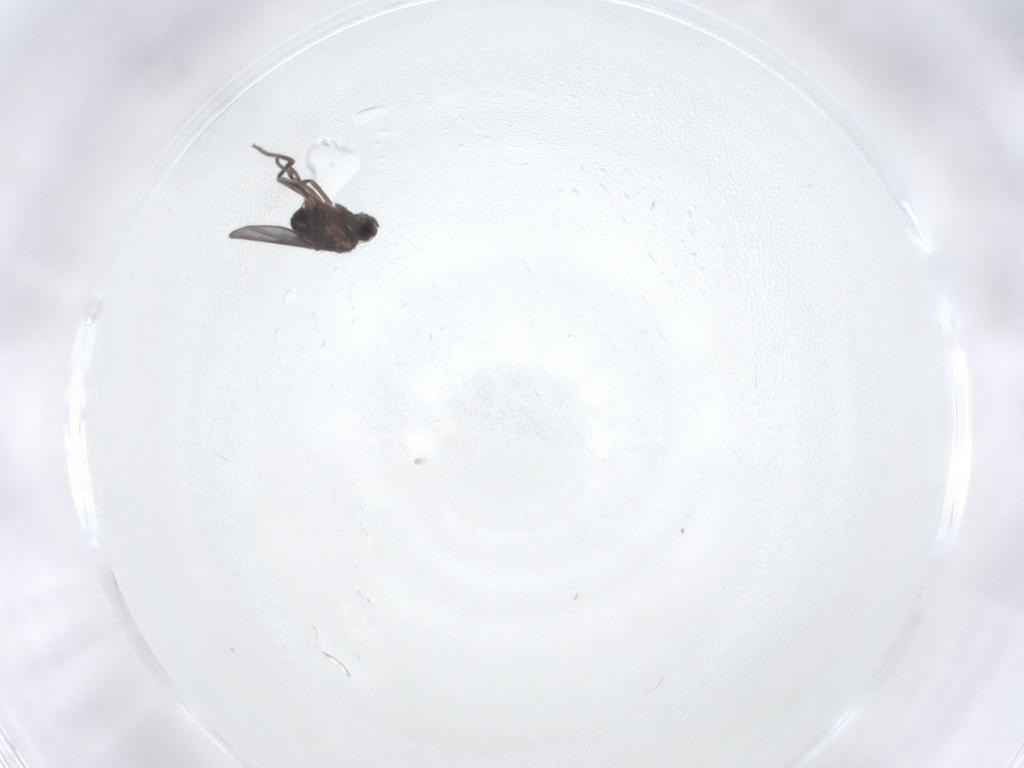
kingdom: Animalia
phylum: Arthropoda
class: Insecta
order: Diptera
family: Phoridae
